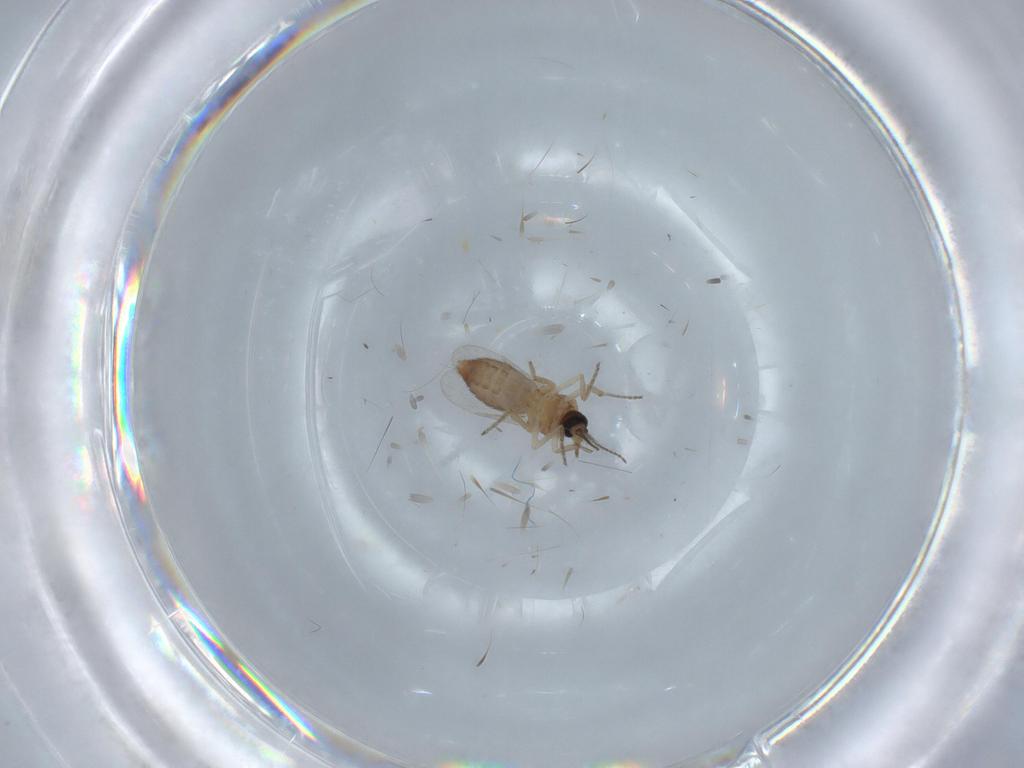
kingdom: Animalia
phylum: Arthropoda
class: Insecta
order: Diptera
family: Ceratopogonidae
